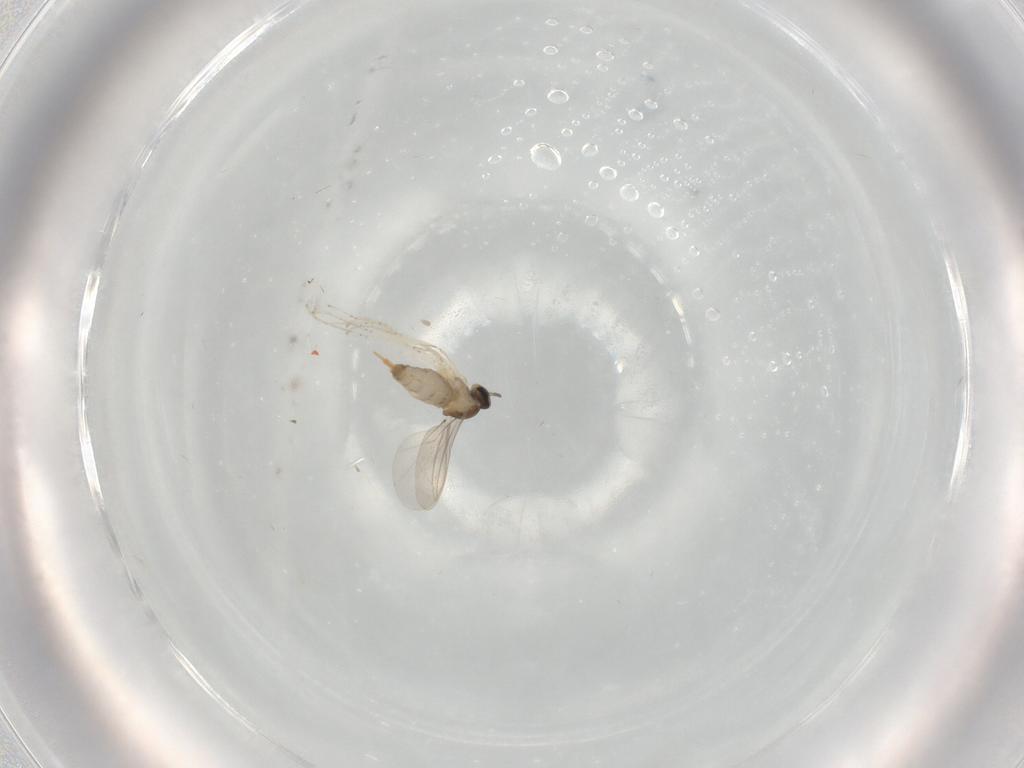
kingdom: Animalia
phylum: Arthropoda
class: Insecta
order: Diptera
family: Cecidomyiidae
